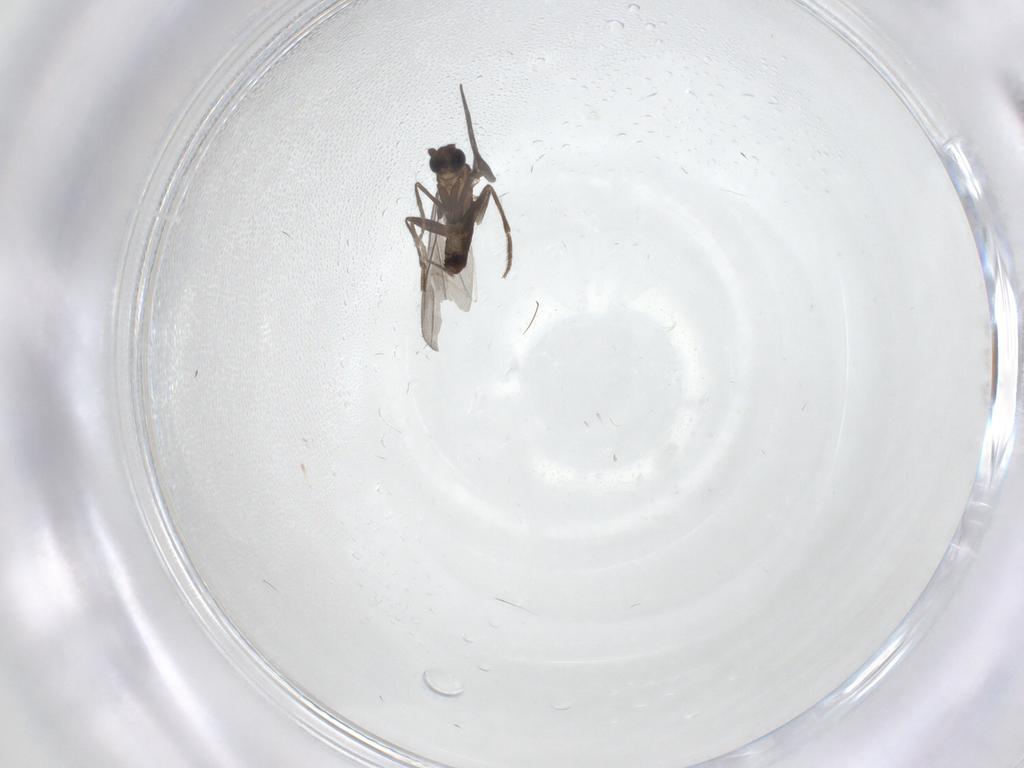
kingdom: Animalia
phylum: Arthropoda
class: Insecta
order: Diptera
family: Phoridae
